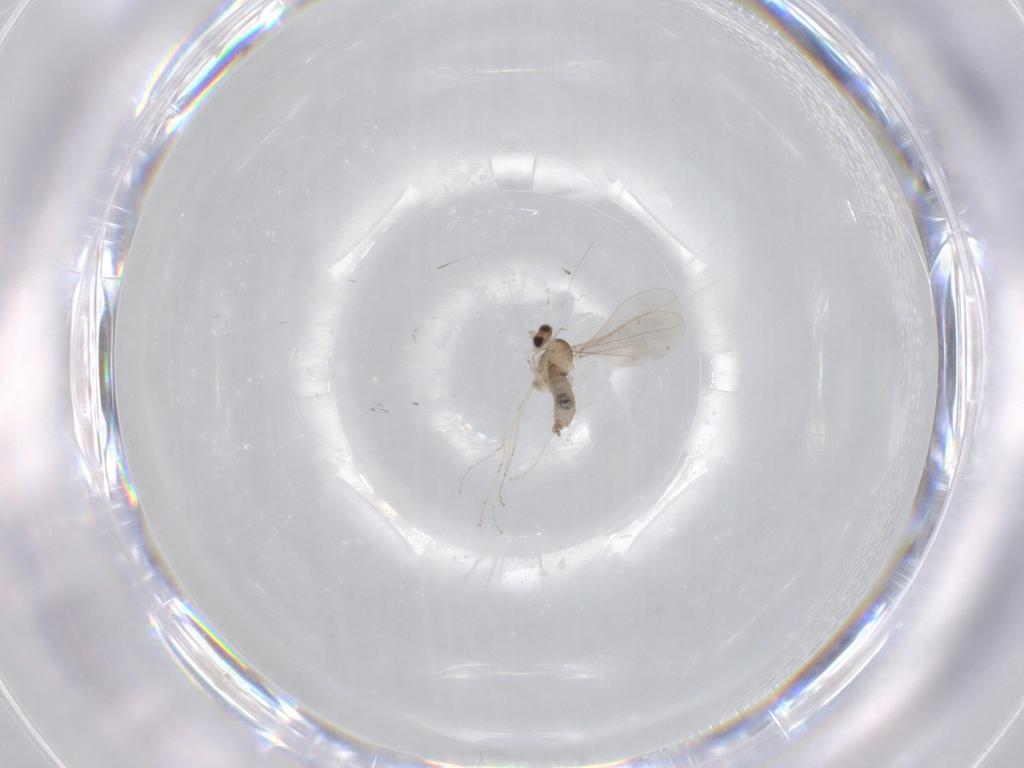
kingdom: Animalia
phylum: Arthropoda
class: Insecta
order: Diptera
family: Cecidomyiidae
